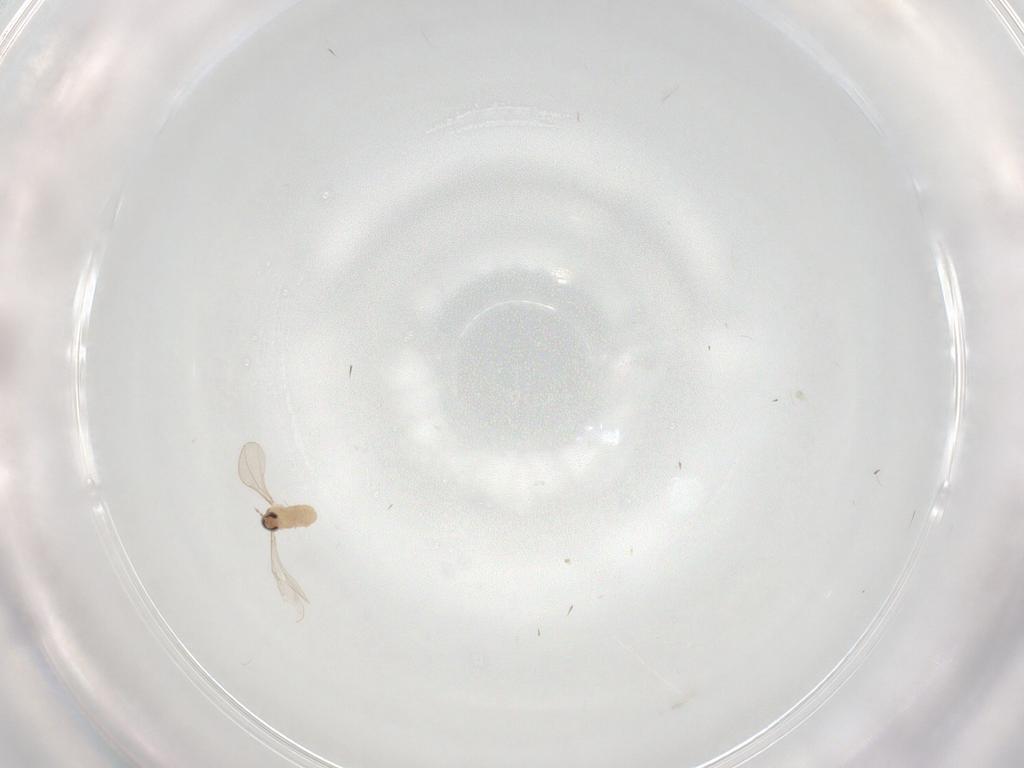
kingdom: Animalia
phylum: Arthropoda
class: Insecta
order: Diptera
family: Cecidomyiidae
